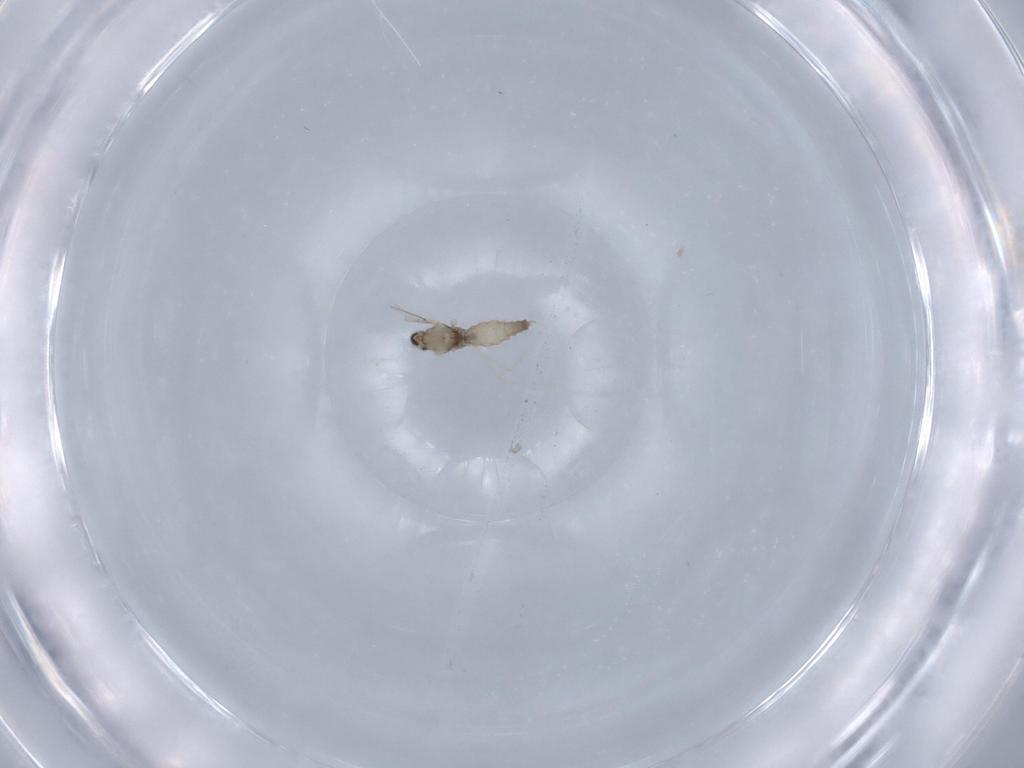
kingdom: Animalia
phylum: Arthropoda
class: Insecta
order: Diptera
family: Cecidomyiidae
